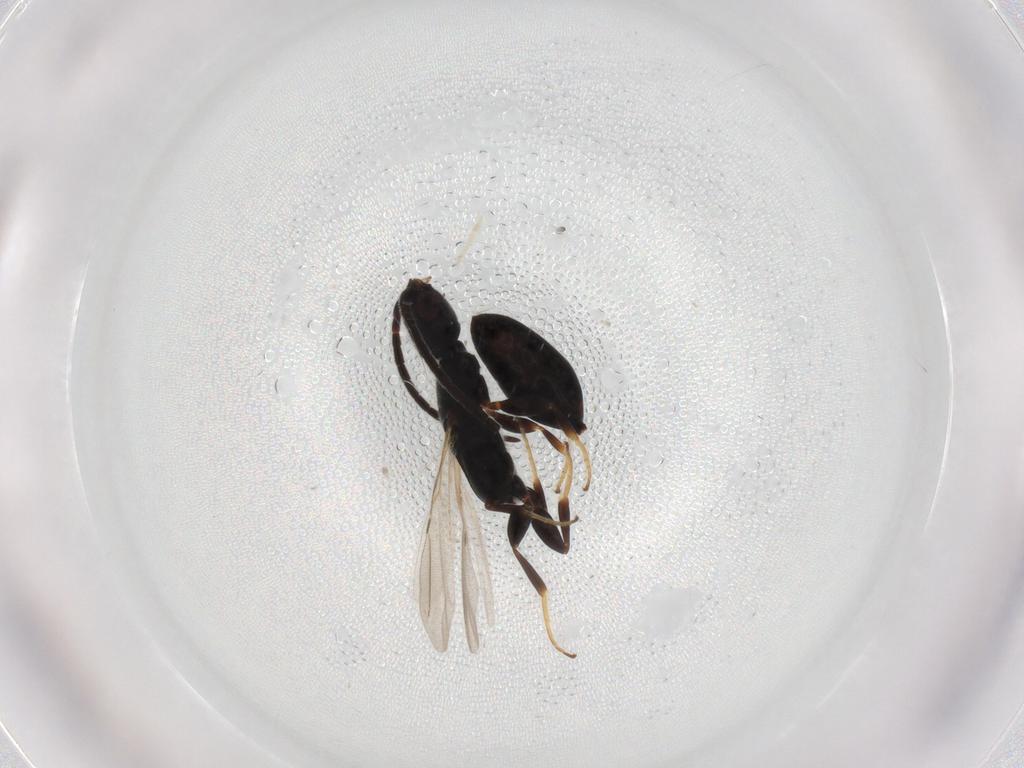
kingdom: Animalia
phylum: Arthropoda
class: Insecta
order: Hymenoptera
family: Bethylidae
